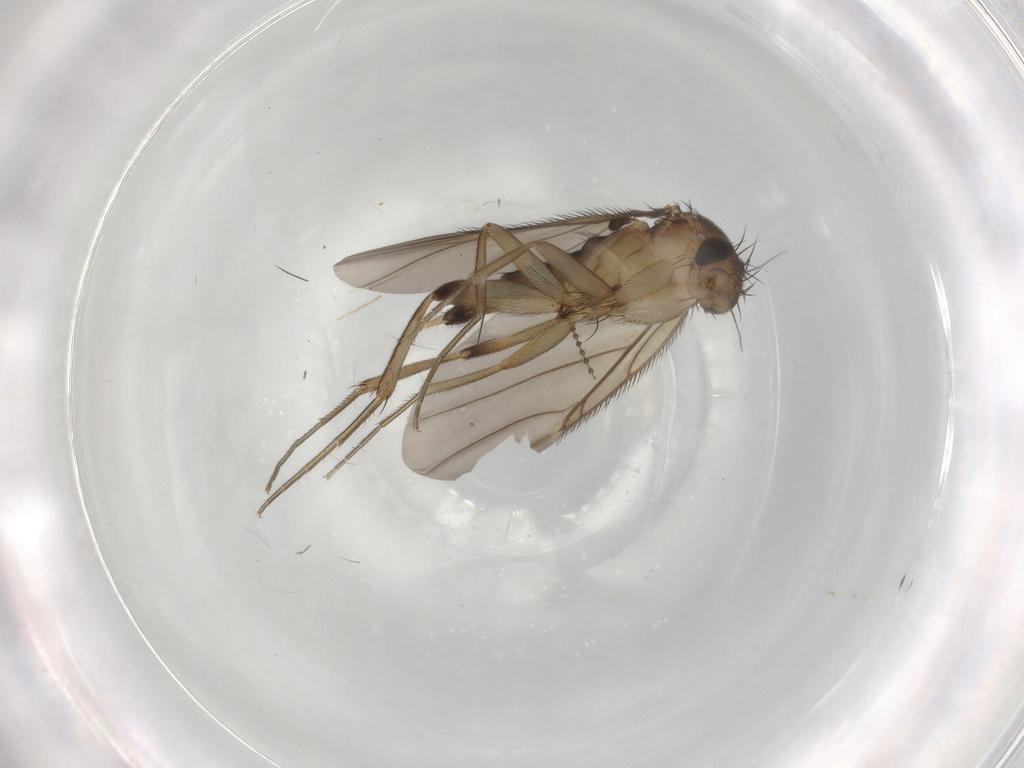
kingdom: Animalia
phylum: Arthropoda
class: Insecta
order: Diptera
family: Phoridae
